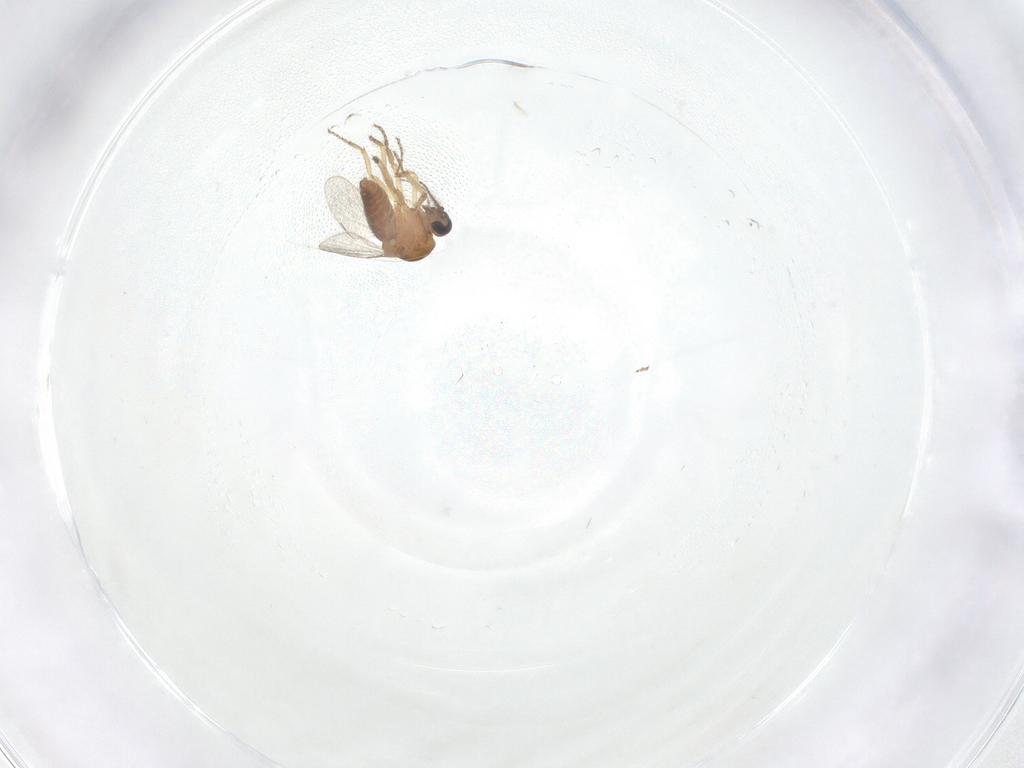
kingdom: Animalia
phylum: Arthropoda
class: Insecta
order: Diptera
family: Ceratopogonidae
